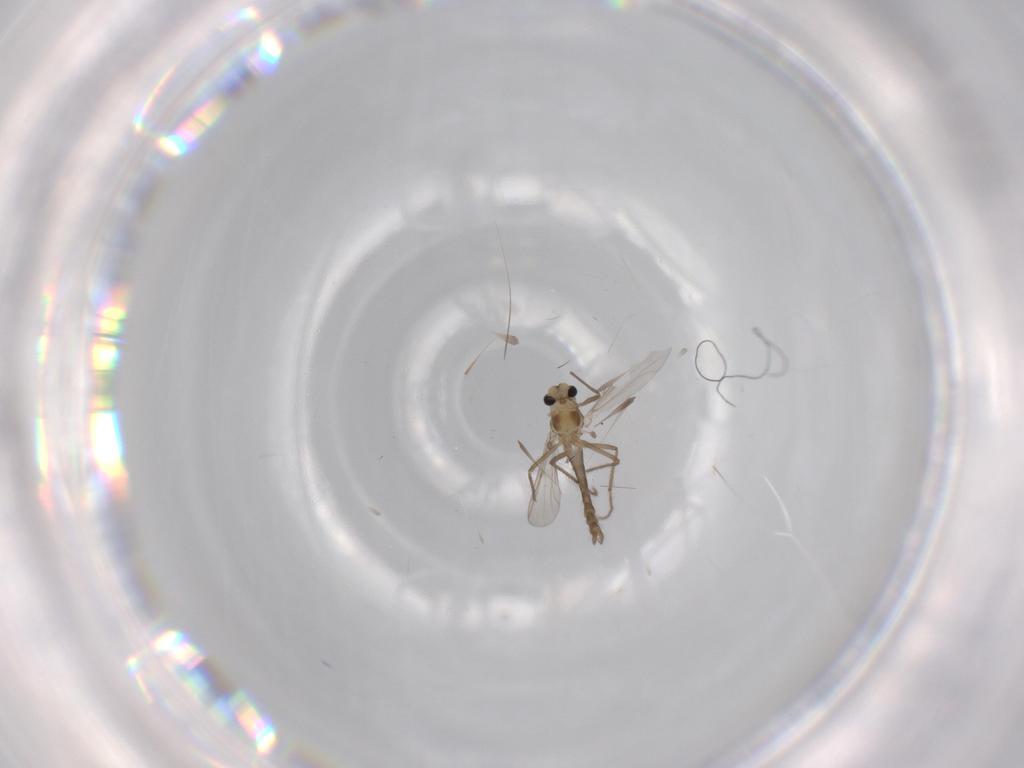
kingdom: Animalia
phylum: Arthropoda
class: Insecta
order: Diptera
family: Chironomidae
